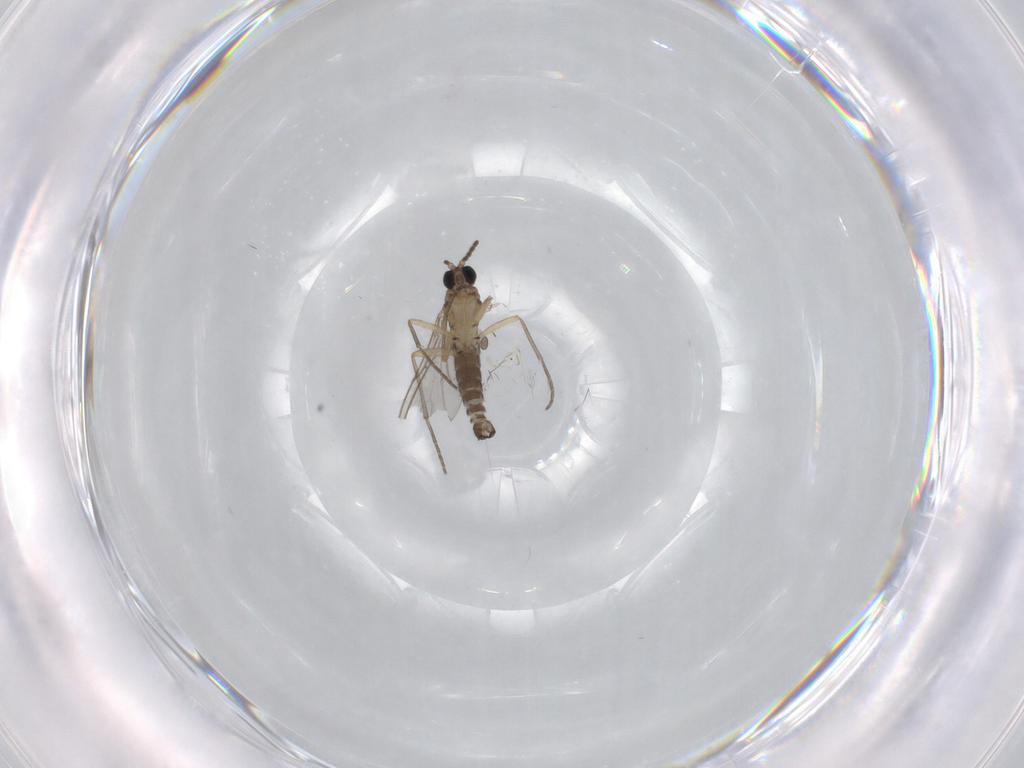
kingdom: Animalia
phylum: Arthropoda
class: Insecta
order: Diptera
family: Sciaridae
